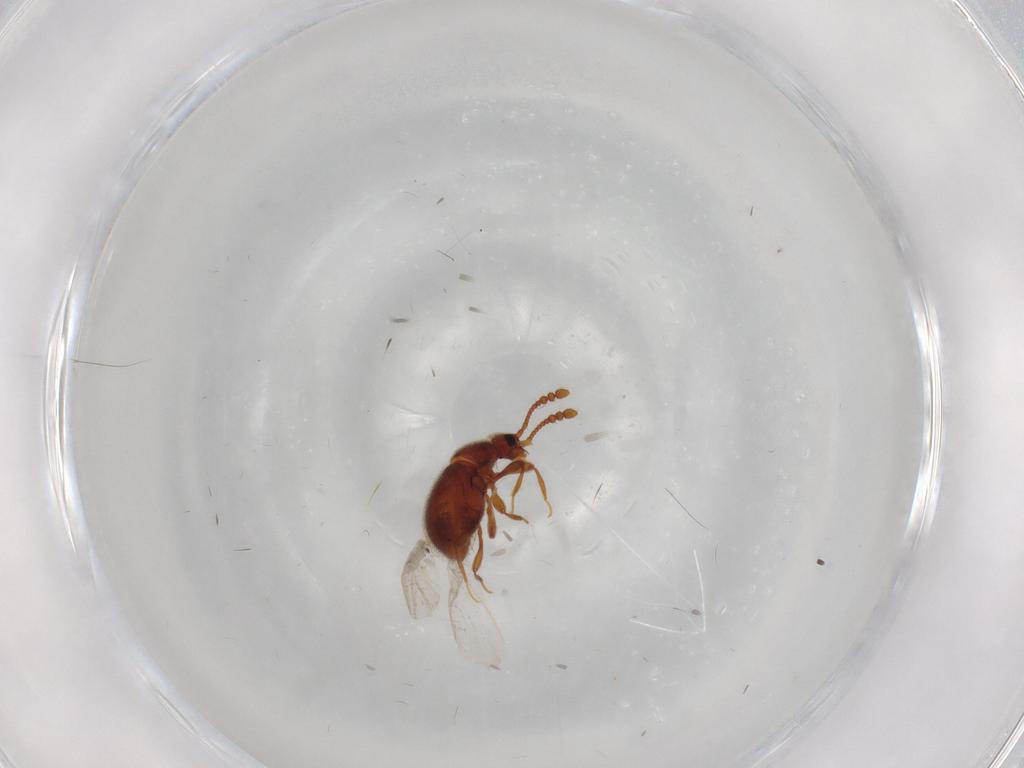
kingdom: Animalia
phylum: Arthropoda
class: Insecta
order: Coleoptera
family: Staphylinidae
